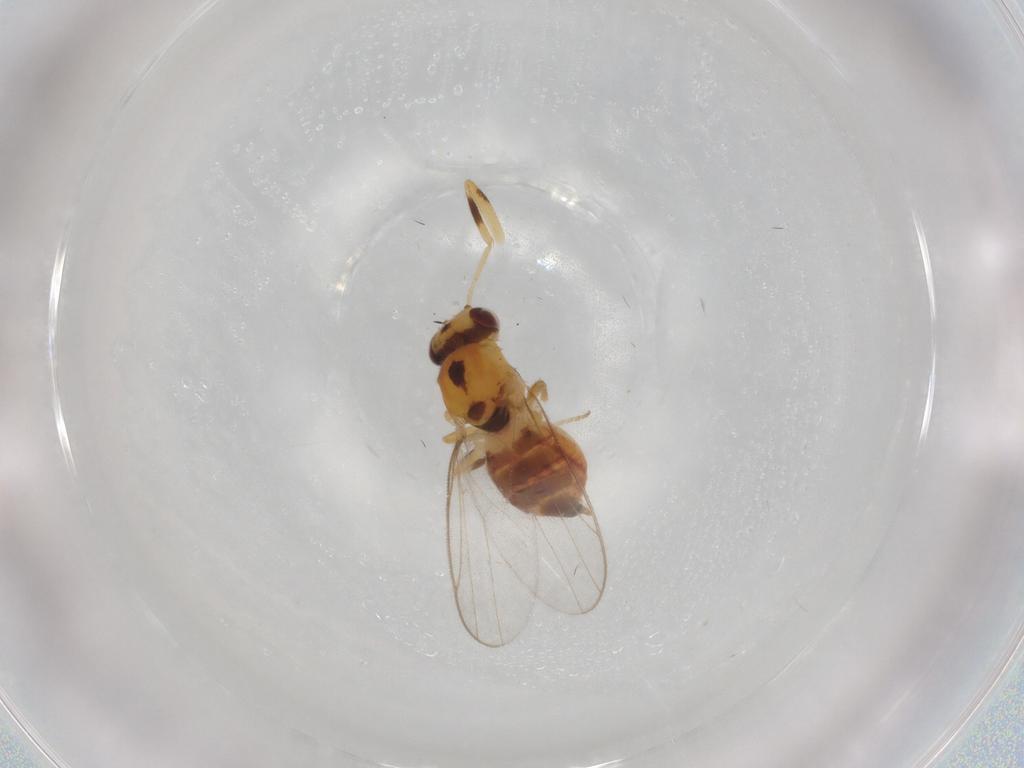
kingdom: Animalia
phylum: Arthropoda
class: Insecta
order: Diptera
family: Chloropidae
